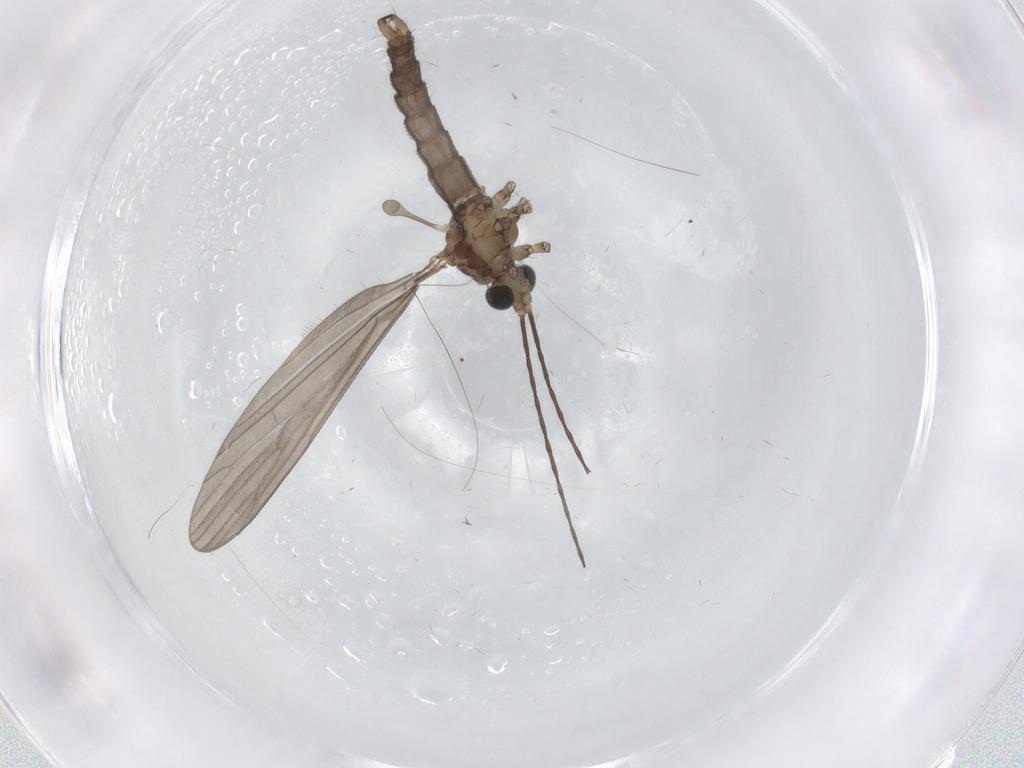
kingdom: Animalia
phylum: Arthropoda
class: Insecta
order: Diptera
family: Limoniidae
